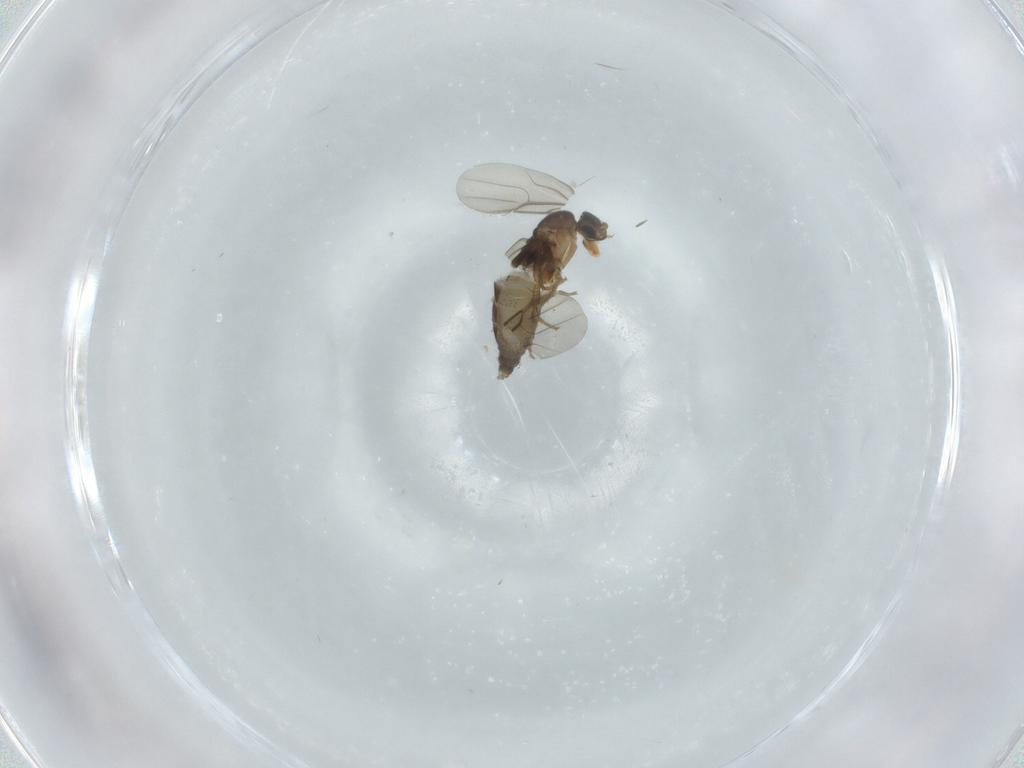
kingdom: Animalia
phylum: Arthropoda
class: Insecta
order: Diptera
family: Phoridae
